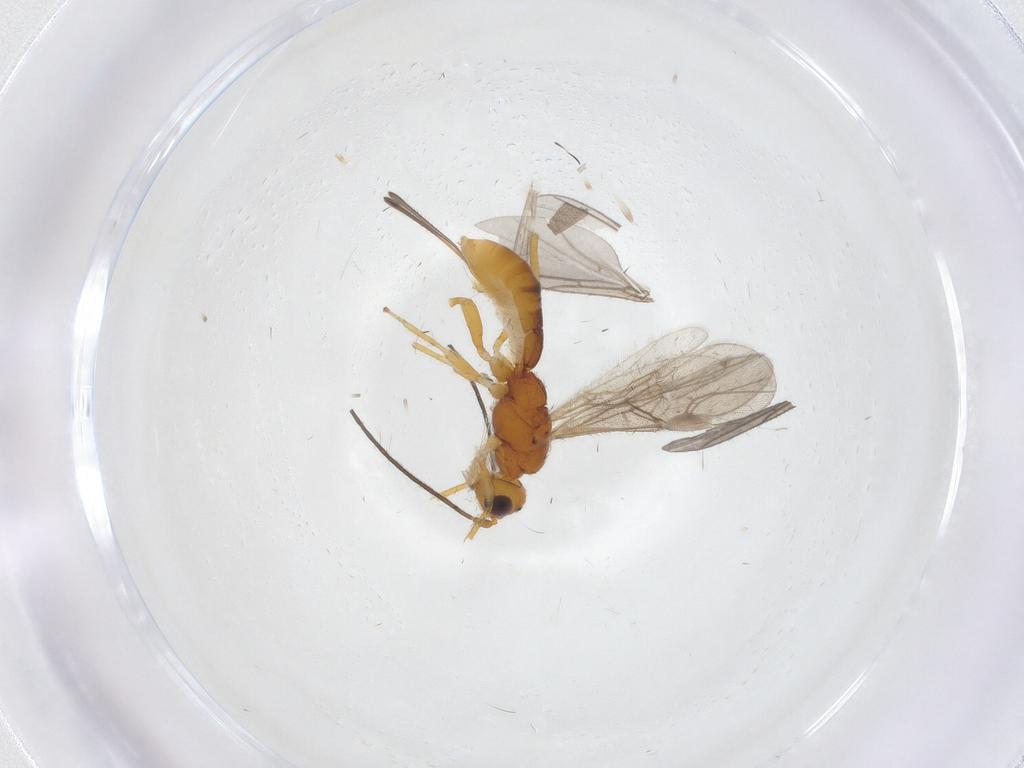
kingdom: Animalia
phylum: Arthropoda
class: Insecta
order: Hymenoptera
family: Braconidae
